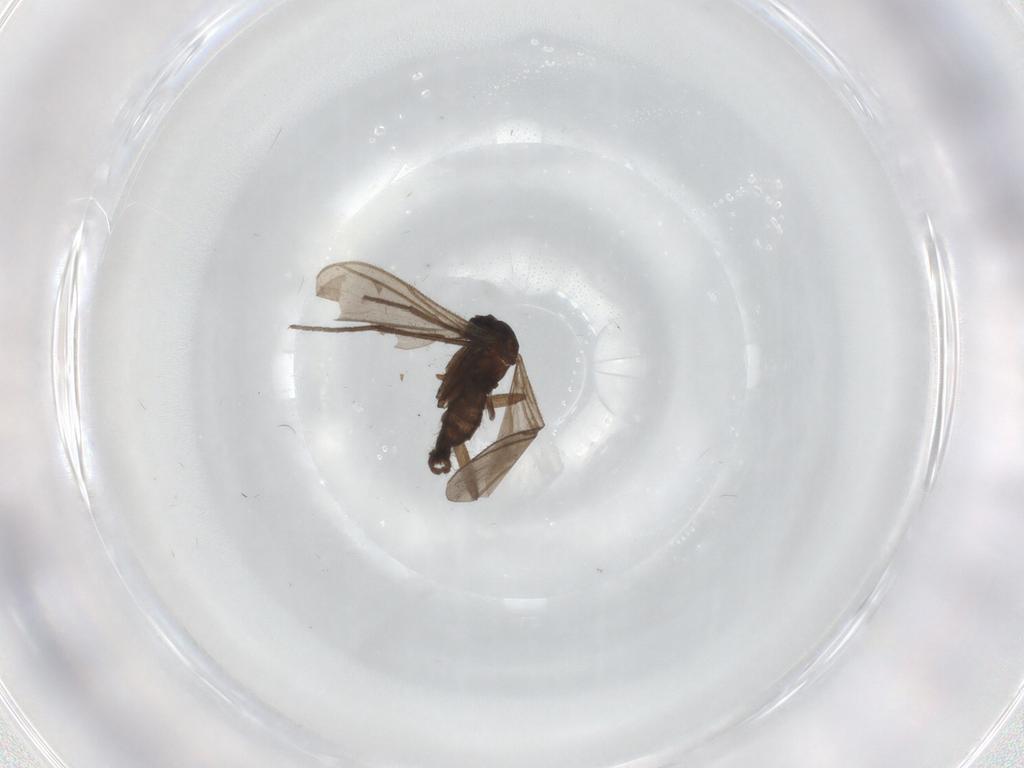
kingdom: Animalia
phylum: Arthropoda
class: Insecta
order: Diptera
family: Sciaridae
